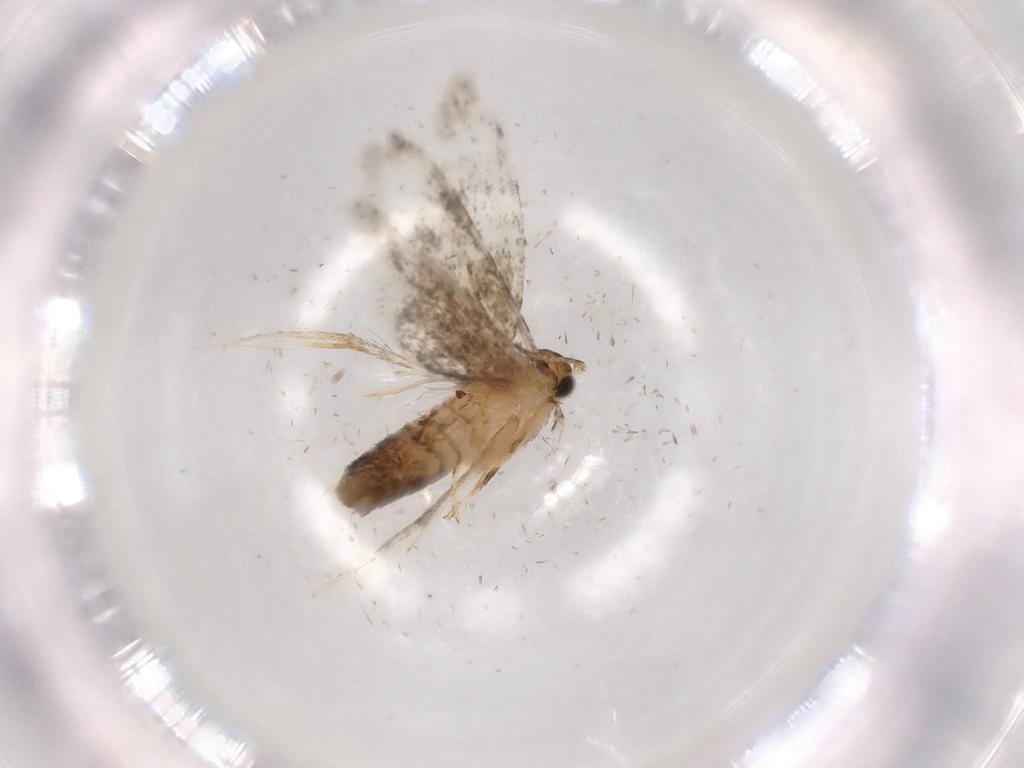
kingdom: Animalia
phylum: Arthropoda
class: Insecta
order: Lepidoptera
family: Tineidae
